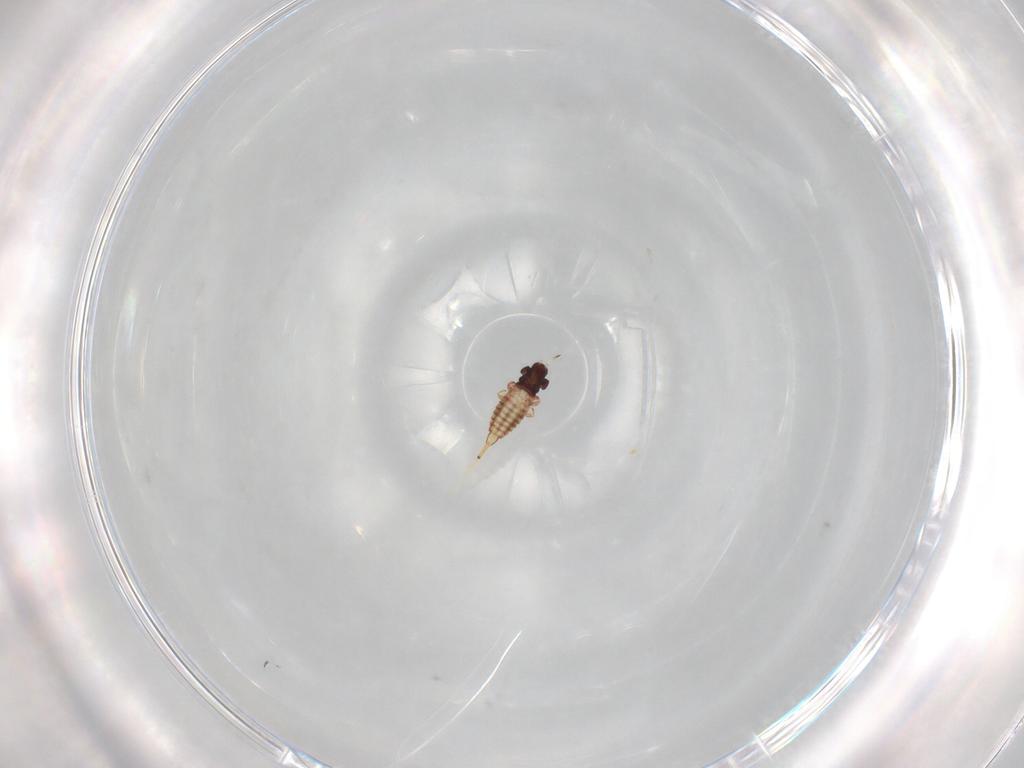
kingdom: Animalia
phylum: Arthropoda
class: Insecta
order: Thysanoptera
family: Phlaeothripidae
